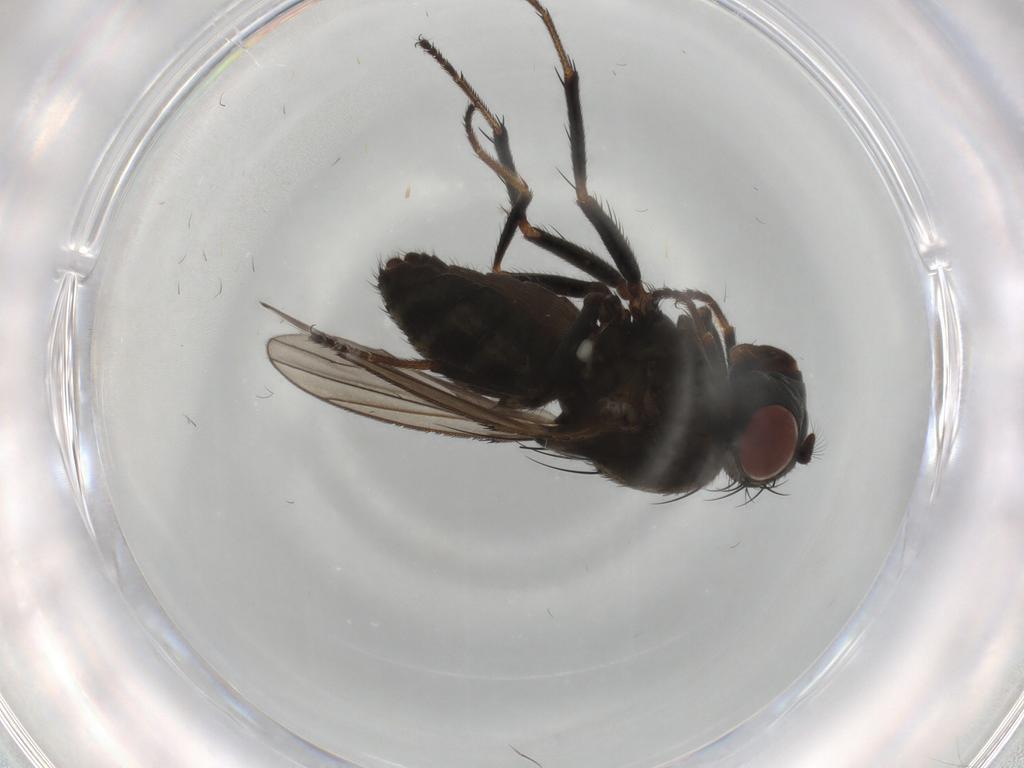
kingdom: Animalia
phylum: Arthropoda
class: Insecta
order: Diptera
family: Ephydridae
